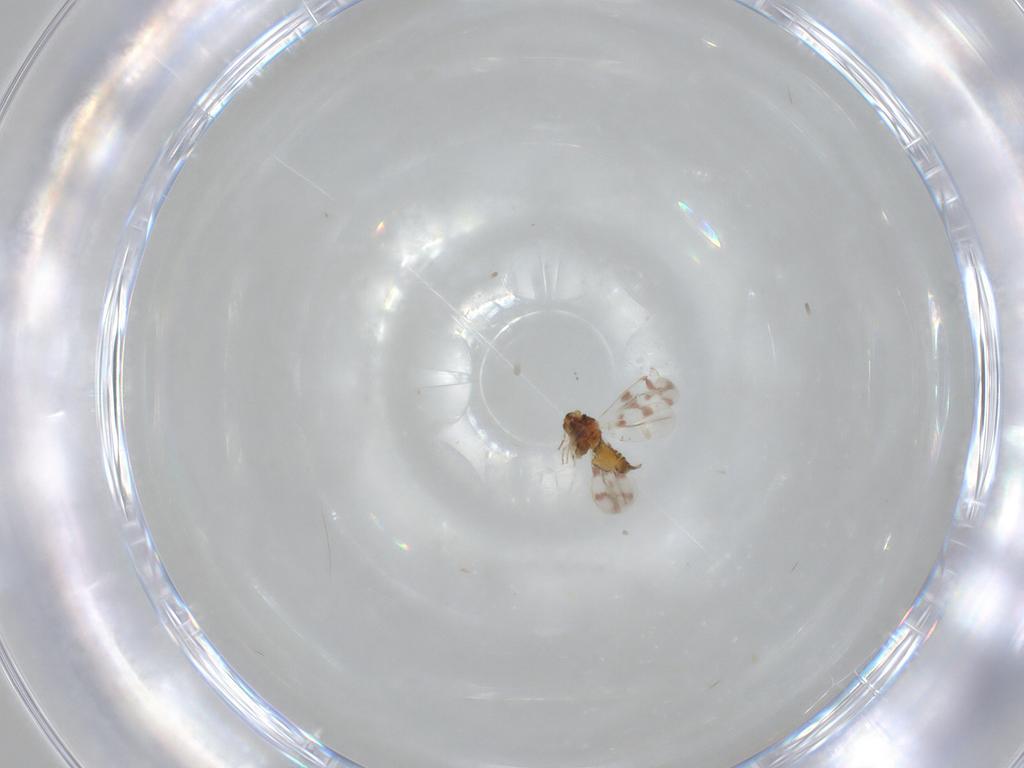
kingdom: Animalia
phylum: Arthropoda
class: Insecta
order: Hemiptera
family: Aleyrodidae
